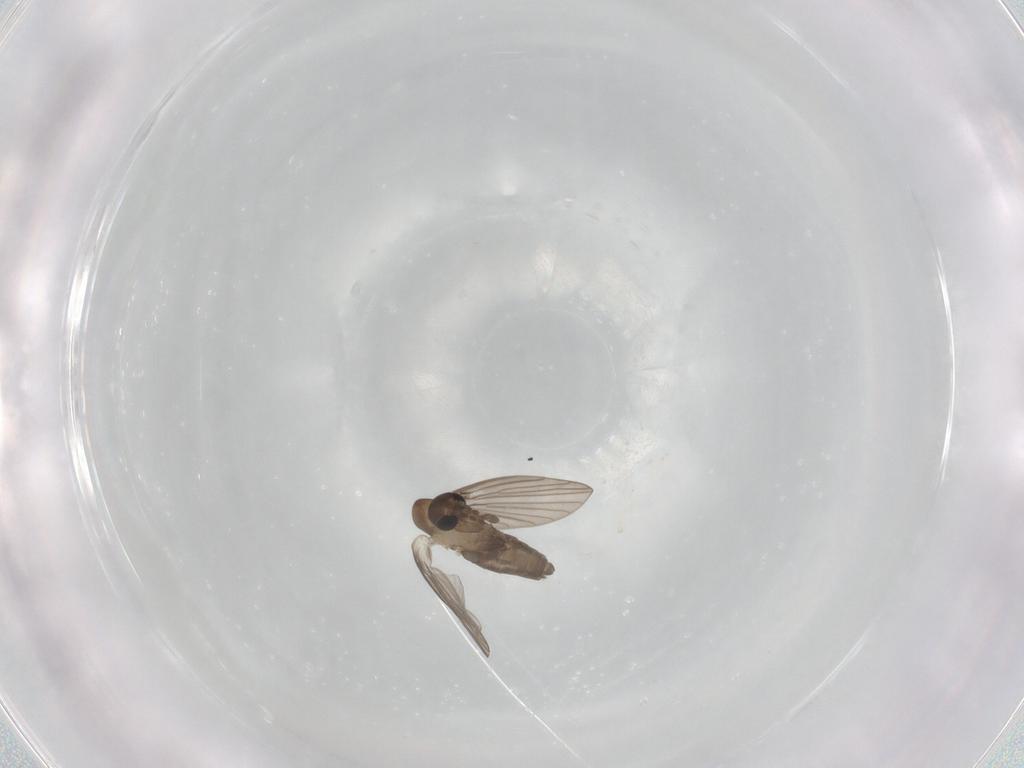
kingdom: Animalia
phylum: Arthropoda
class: Insecta
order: Diptera
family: Psychodidae
